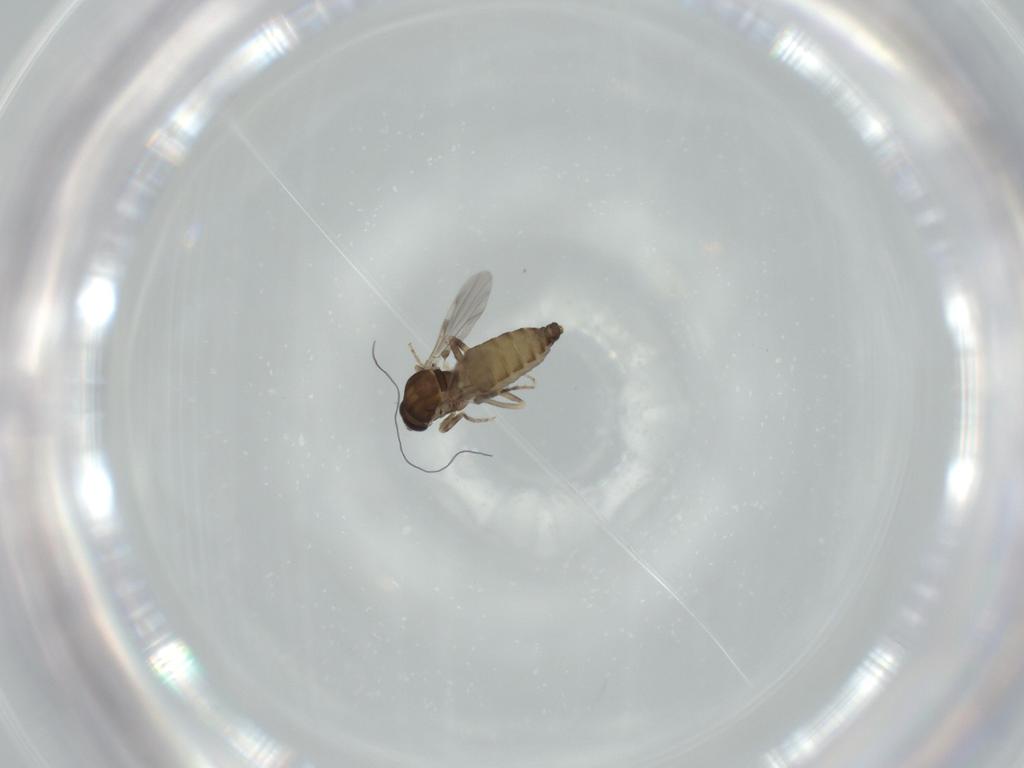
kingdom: Animalia
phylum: Arthropoda
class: Insecta
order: Diptera
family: Ceratopogonidae
